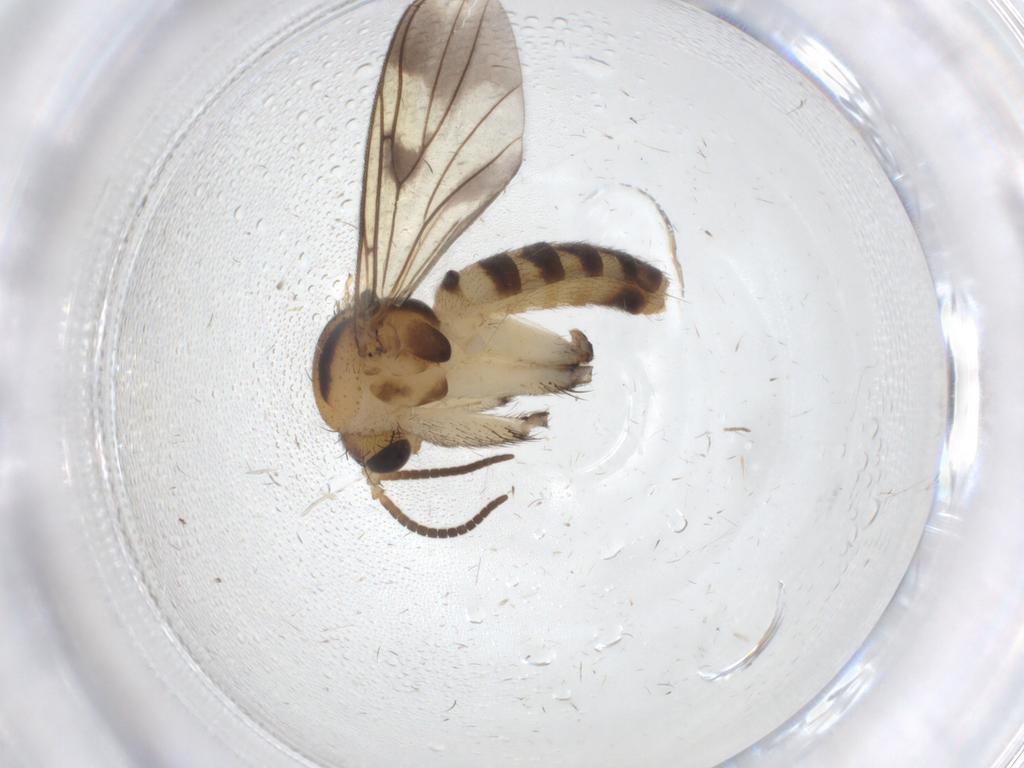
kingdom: Animalia
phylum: Arthropoda
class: Insecta
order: Diptera
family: Mycetophilidae
